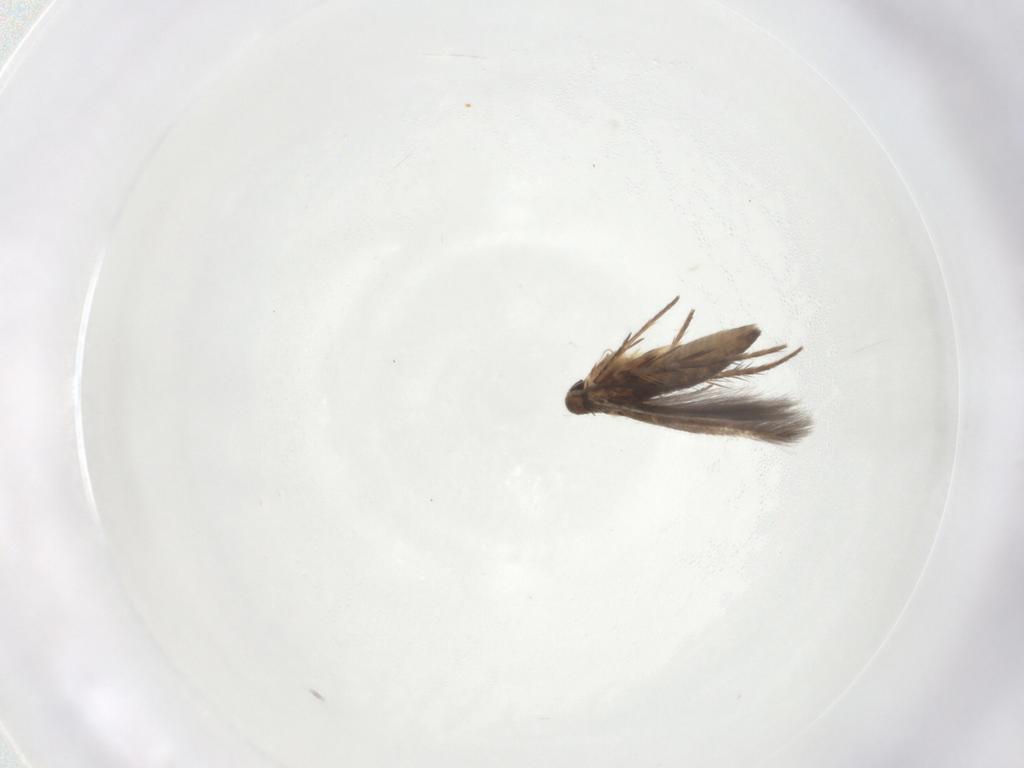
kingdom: Animalia
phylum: Arthropoda
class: Insecta
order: Lepidoptera
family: Pyralidae
